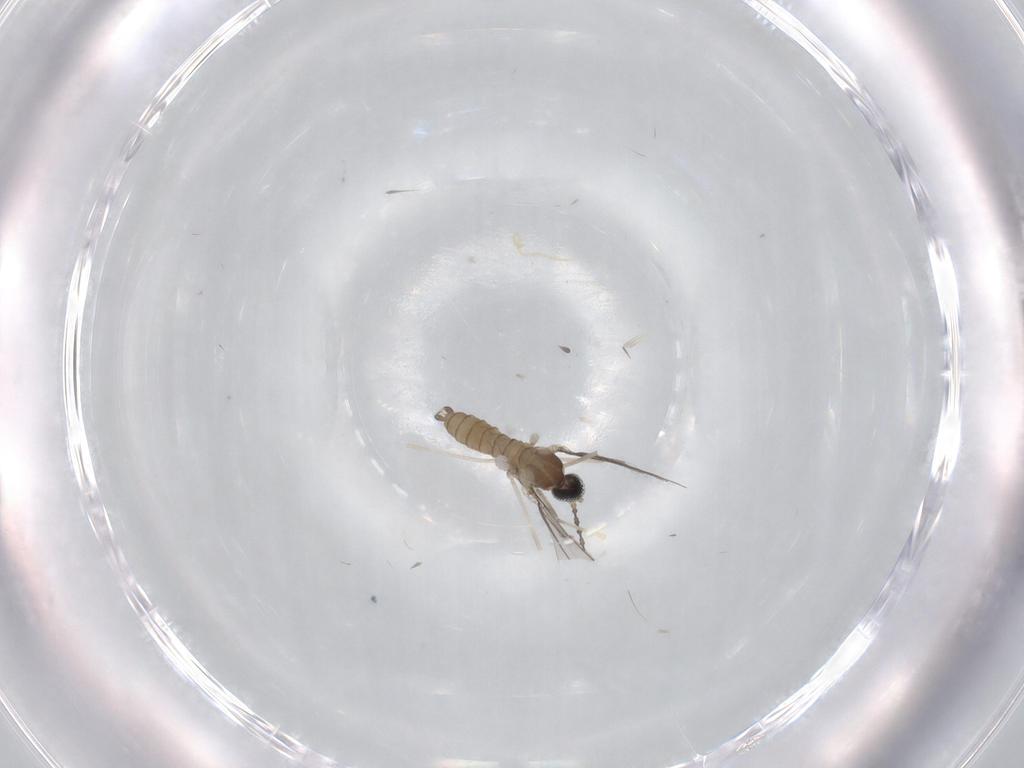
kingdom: Animalia
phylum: Arthropoda
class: Insecta
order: Diptera
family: Cecidomyiidae
